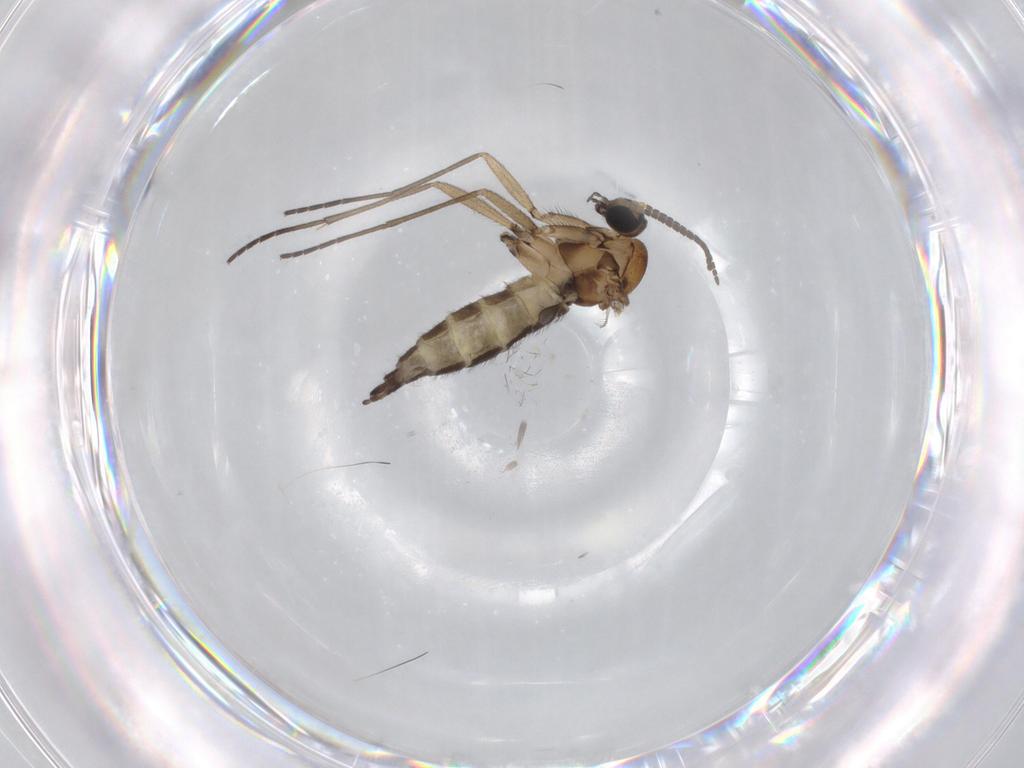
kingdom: Animalia
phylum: Arthropoda
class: Insecta
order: Diptera
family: Sciaridae
